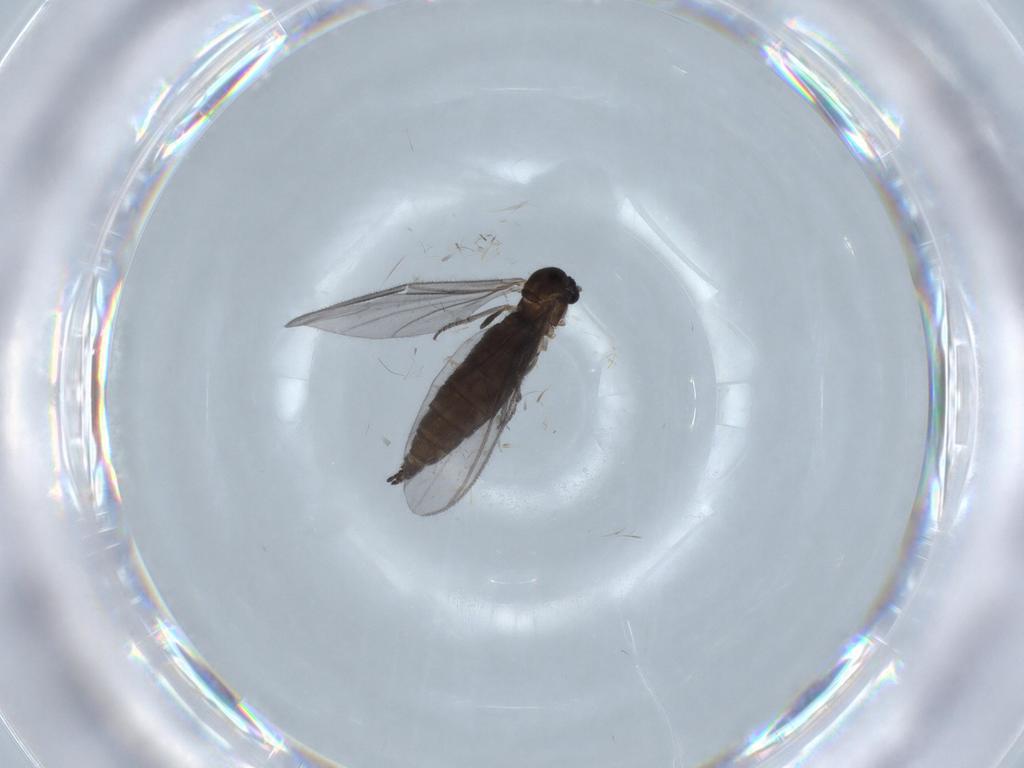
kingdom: Animalia
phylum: Arthropoda
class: Insecta
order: Diptera
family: Sciaridae
